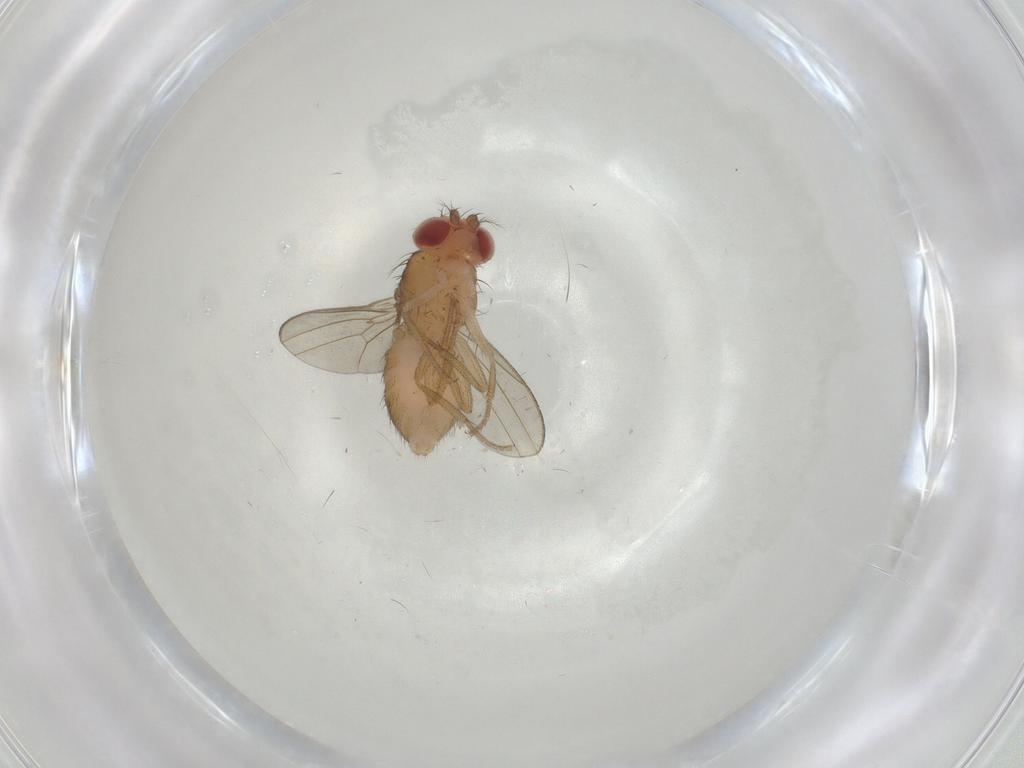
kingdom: Animalia
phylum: Arthropoda
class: Insecta
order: Diptera
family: Drosophilidae
